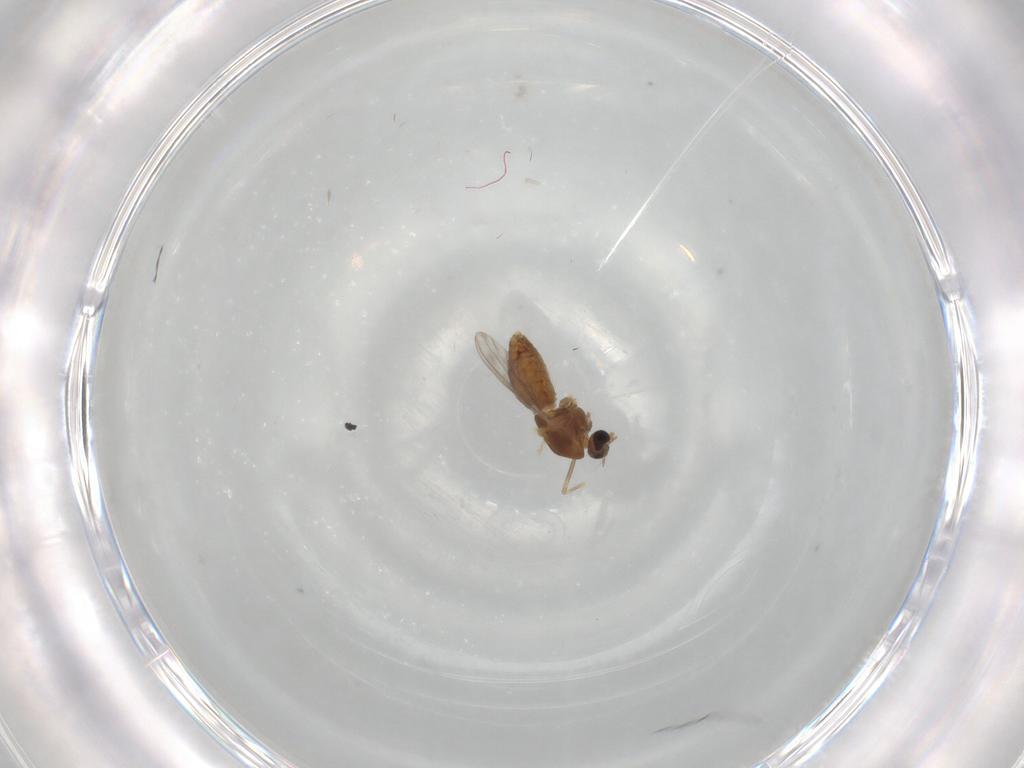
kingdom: Animalia
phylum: Arthropoda
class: Insecta
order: Diptera
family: Chironomidae
